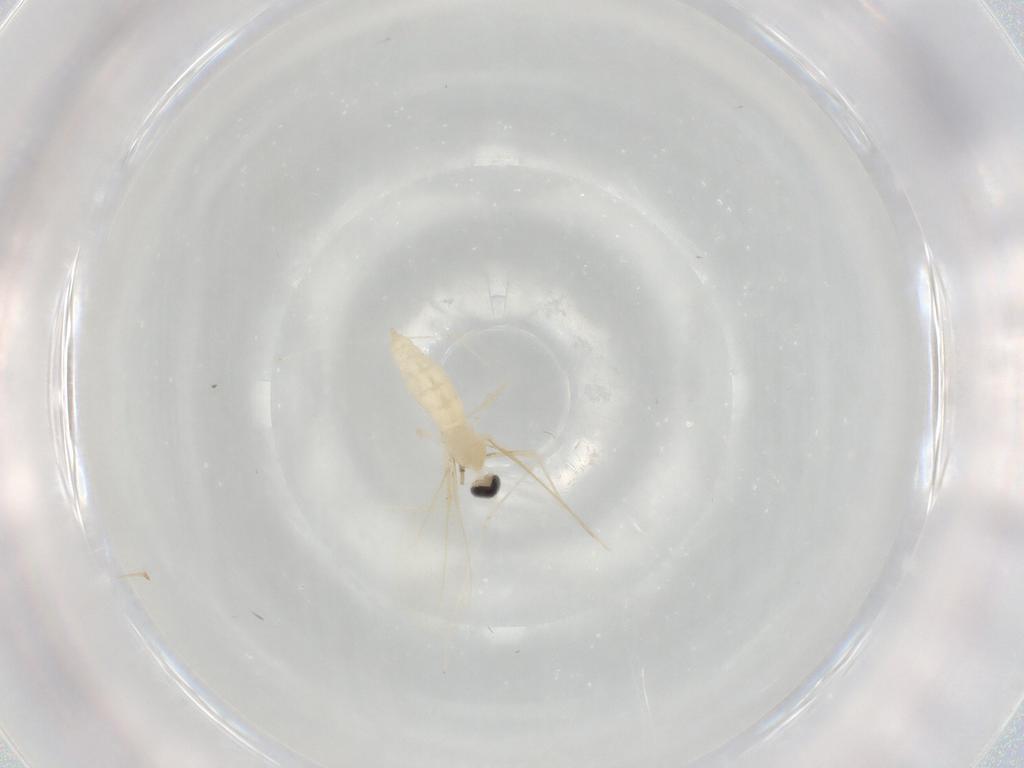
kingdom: Animalia
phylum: Arthropoda
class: Insecta
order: Diptera
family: Cecidomyiidae
